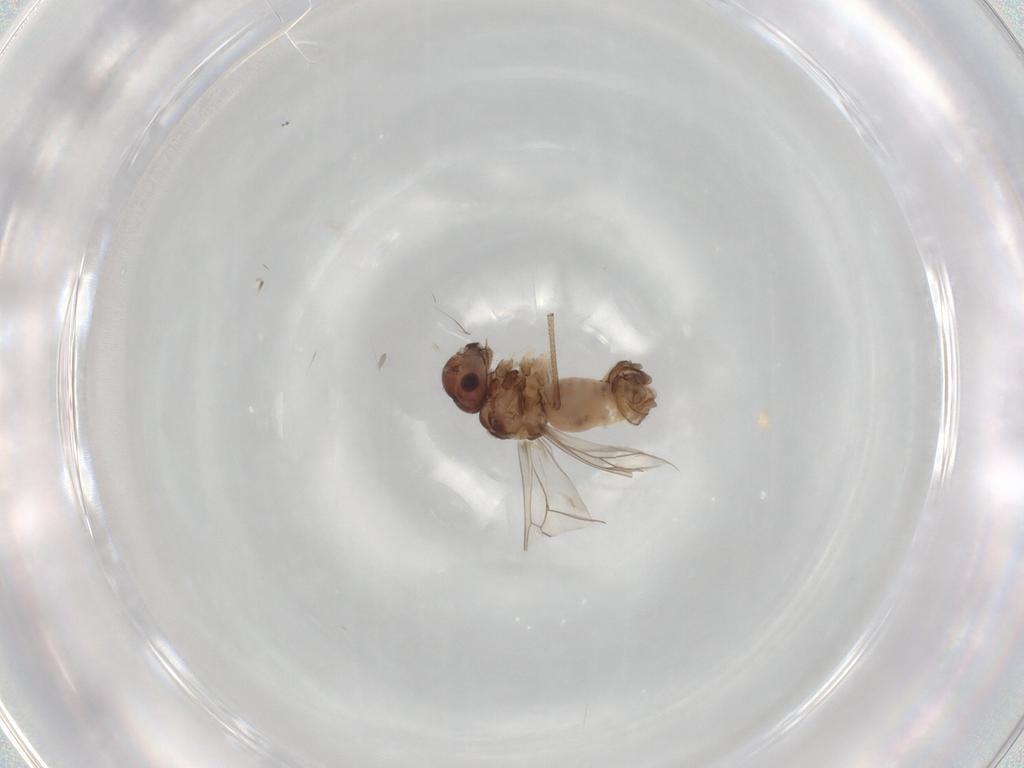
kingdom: Animalia
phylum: Arthropoda
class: Insecta
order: Psocodea
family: Peripsocidae
